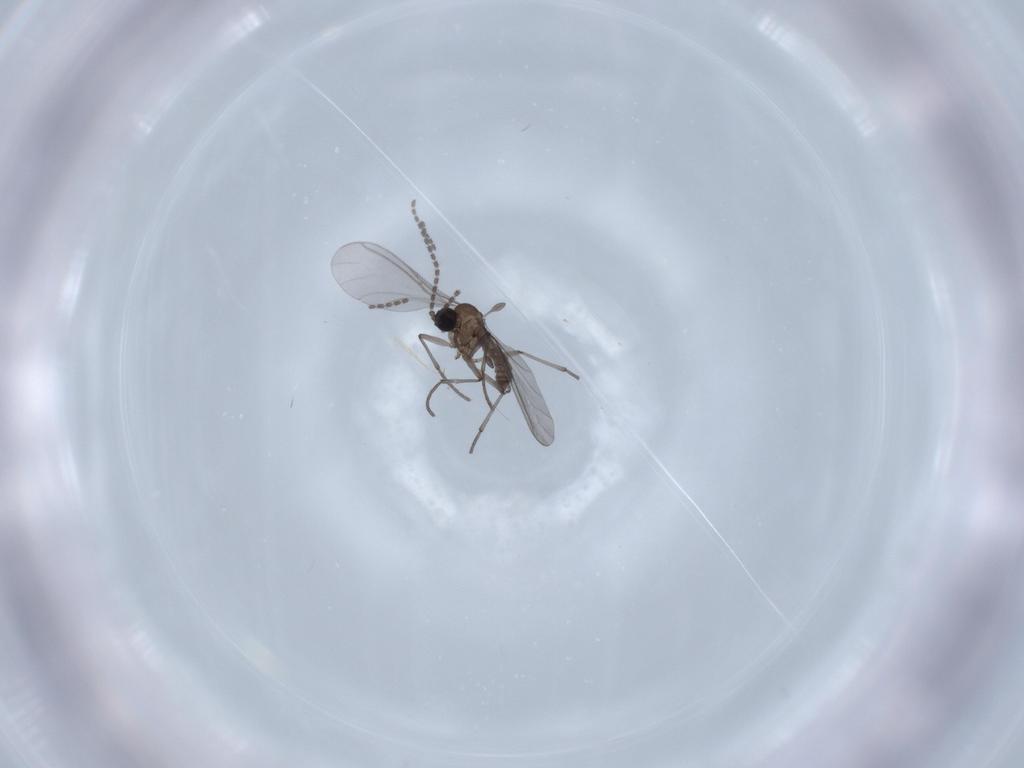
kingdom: Animalia
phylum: Arthropoda
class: Insecta
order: Diptera
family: Sciaridae
